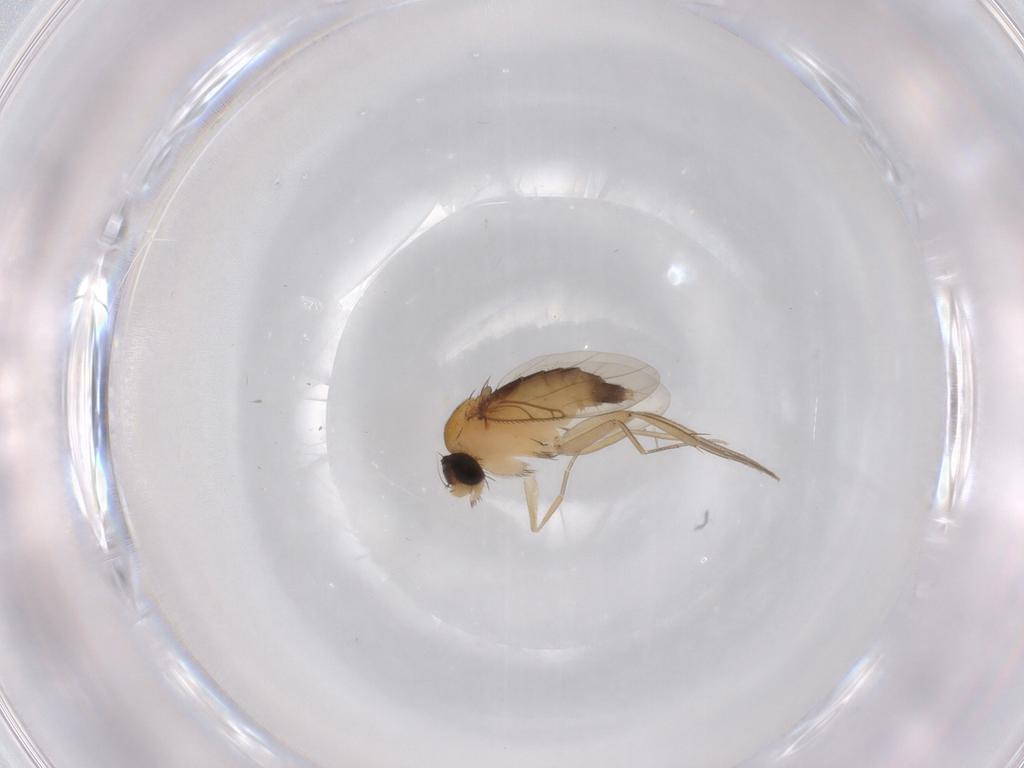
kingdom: Animalia
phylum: Arthropoda
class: Insecta
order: Diptera
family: Phoridae
